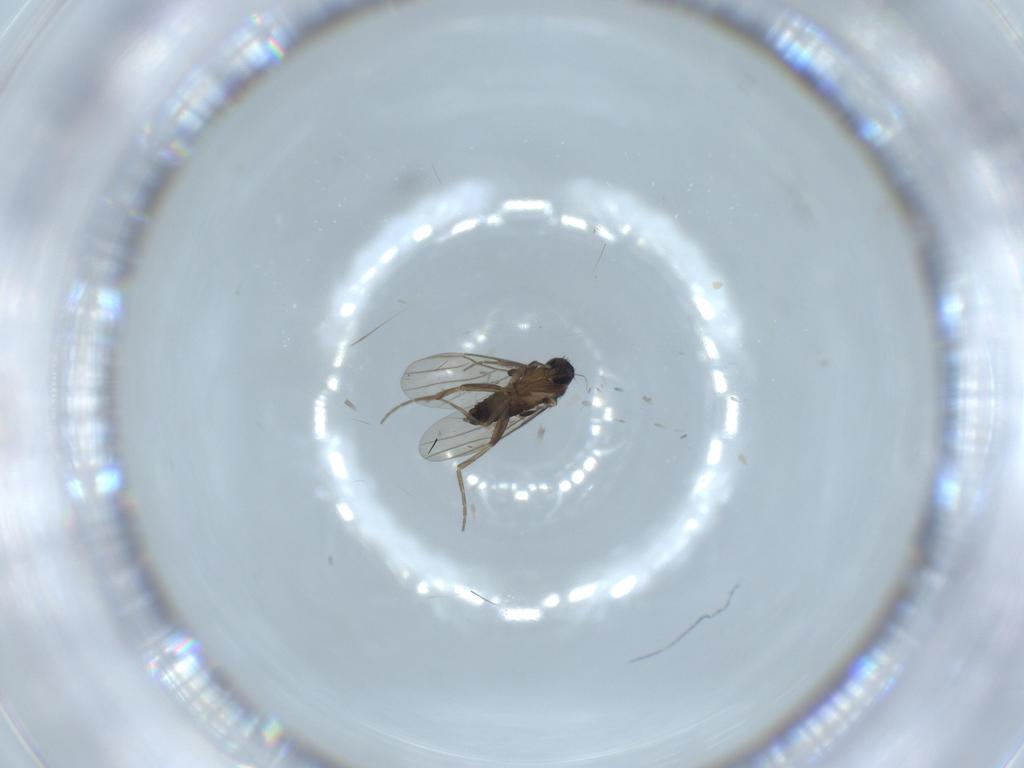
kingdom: Animalia
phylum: Arthropoda
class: Insecta
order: Diptera
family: Phoridae
